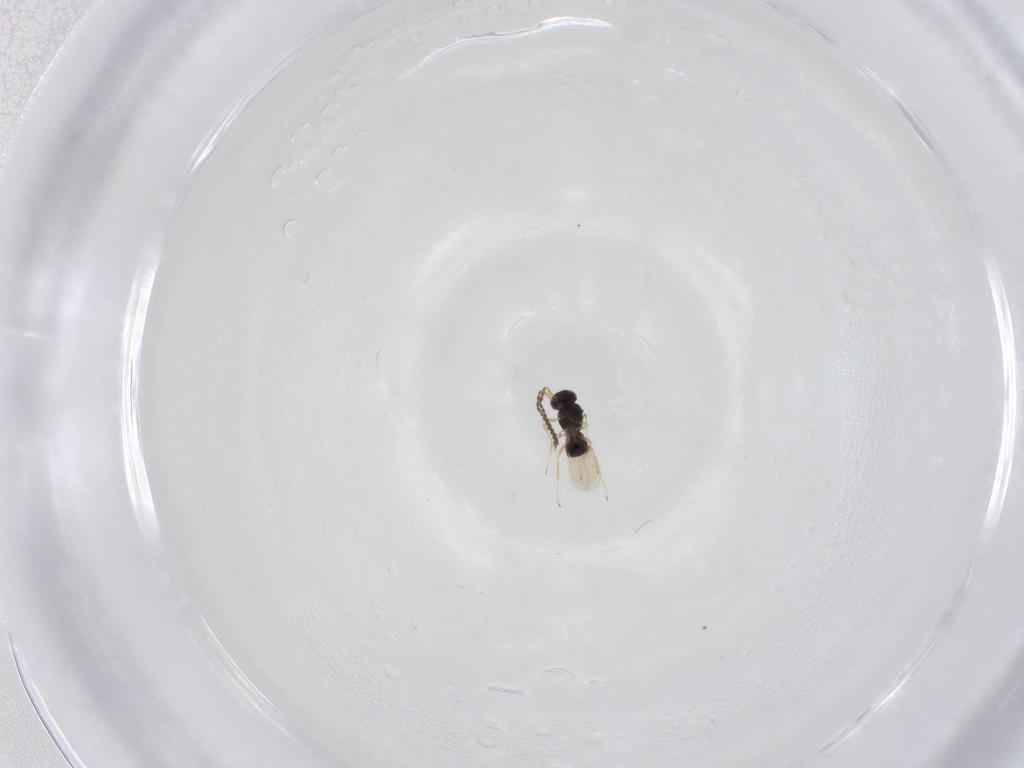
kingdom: Animalia
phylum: Arthropoda
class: Insecta
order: Hymenoptera
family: Scelionidae
